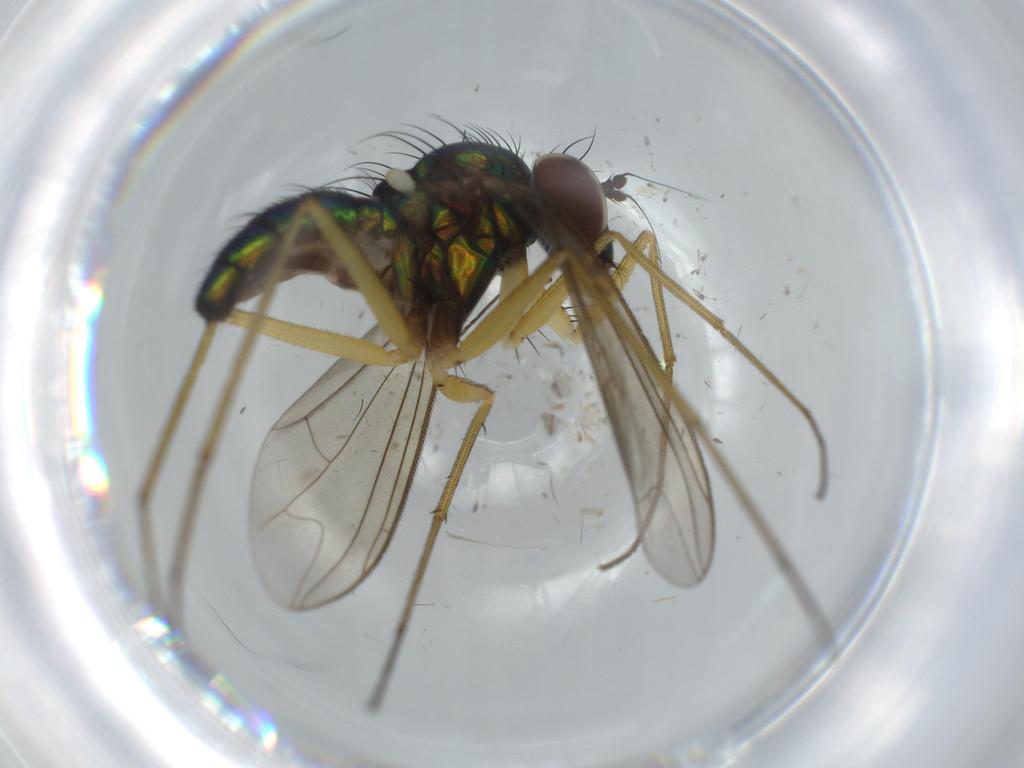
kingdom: Animalia
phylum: Arthropoda
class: Insecta
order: Diptera
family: Dolichopodidae
